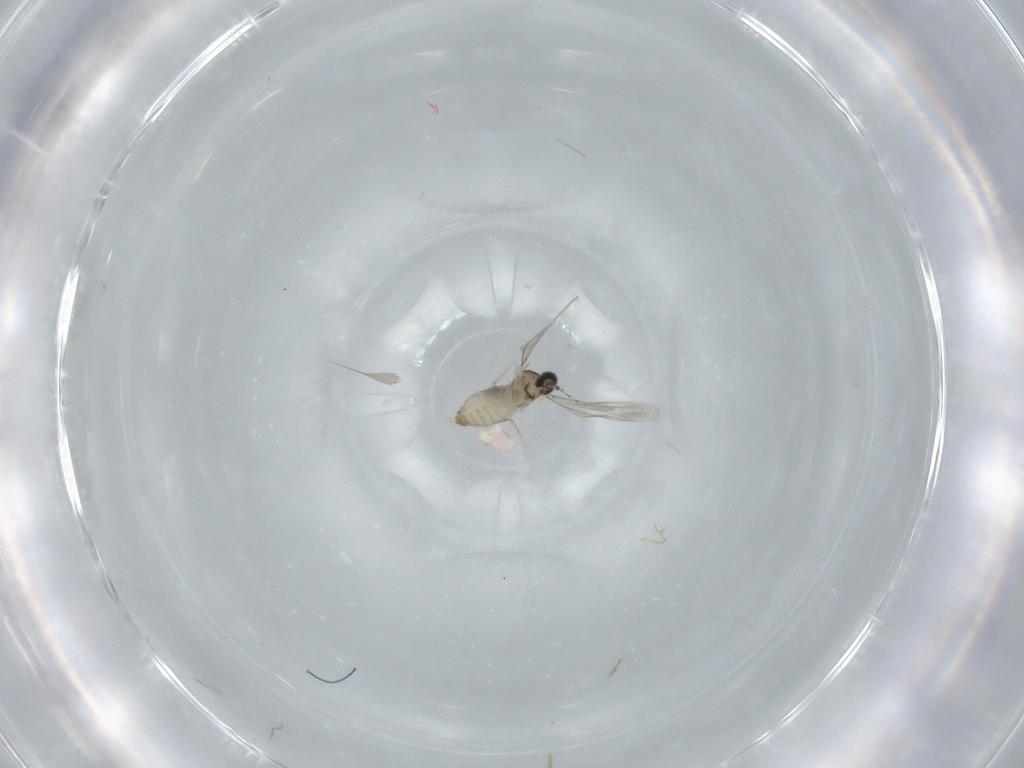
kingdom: Animalia
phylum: Arthropoda
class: Insecta
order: Diptera
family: Cecidomyiidae
